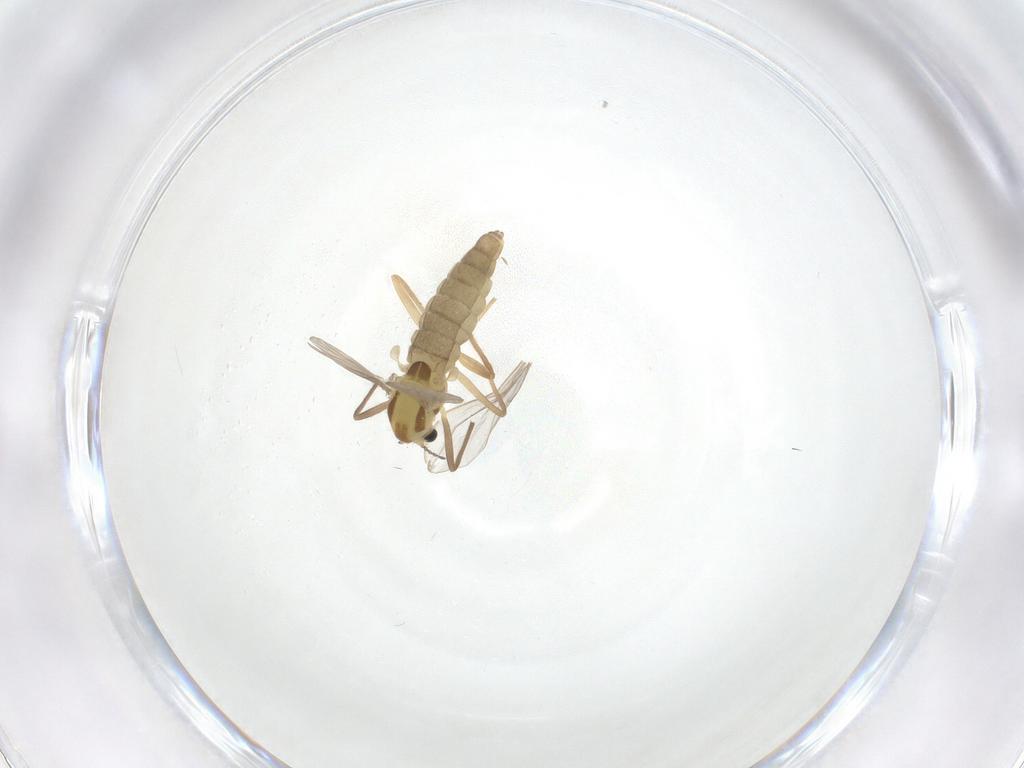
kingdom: Animalia
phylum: Arthropoda
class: Insecta
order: Diptera
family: Chironomidae
